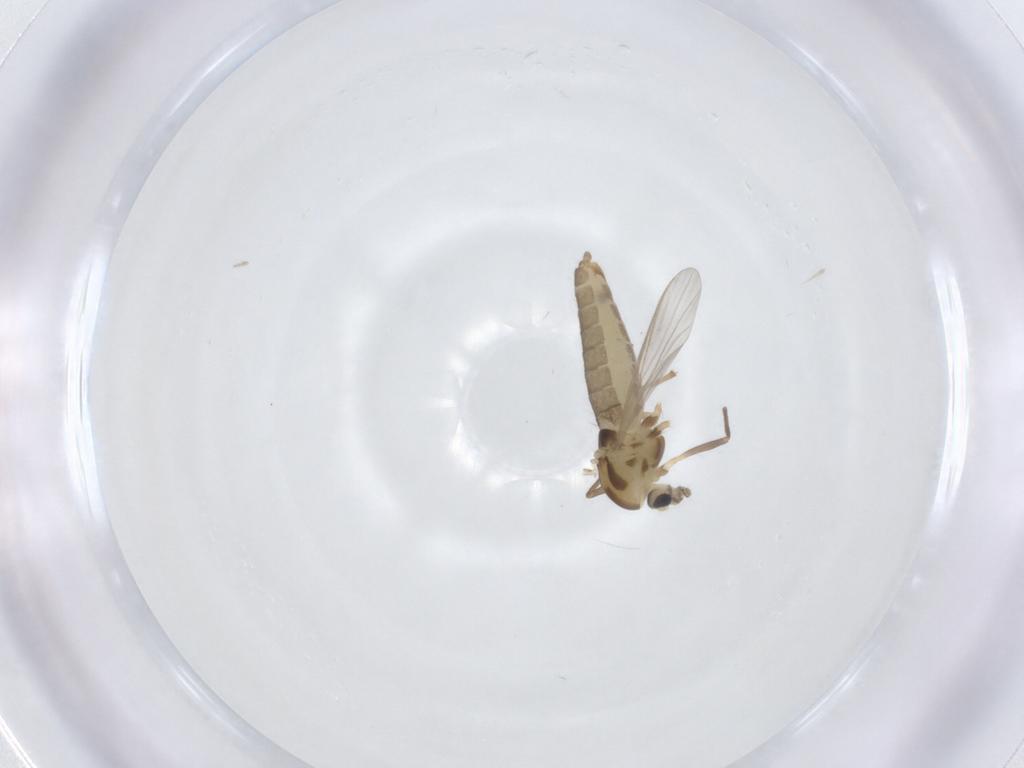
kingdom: Animalia
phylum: Arthropoda
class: Insecta
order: Diptera
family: Chironomidae
